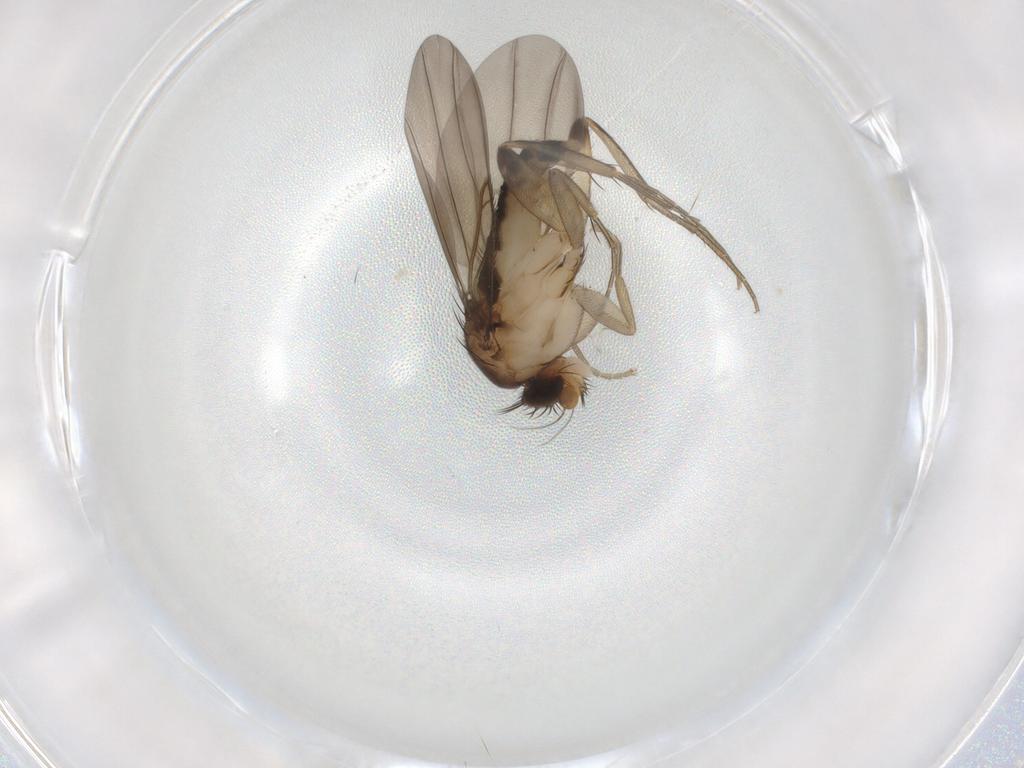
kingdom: Animalia
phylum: Arthropoda
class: Insecta
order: Diptera
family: Phoridae
